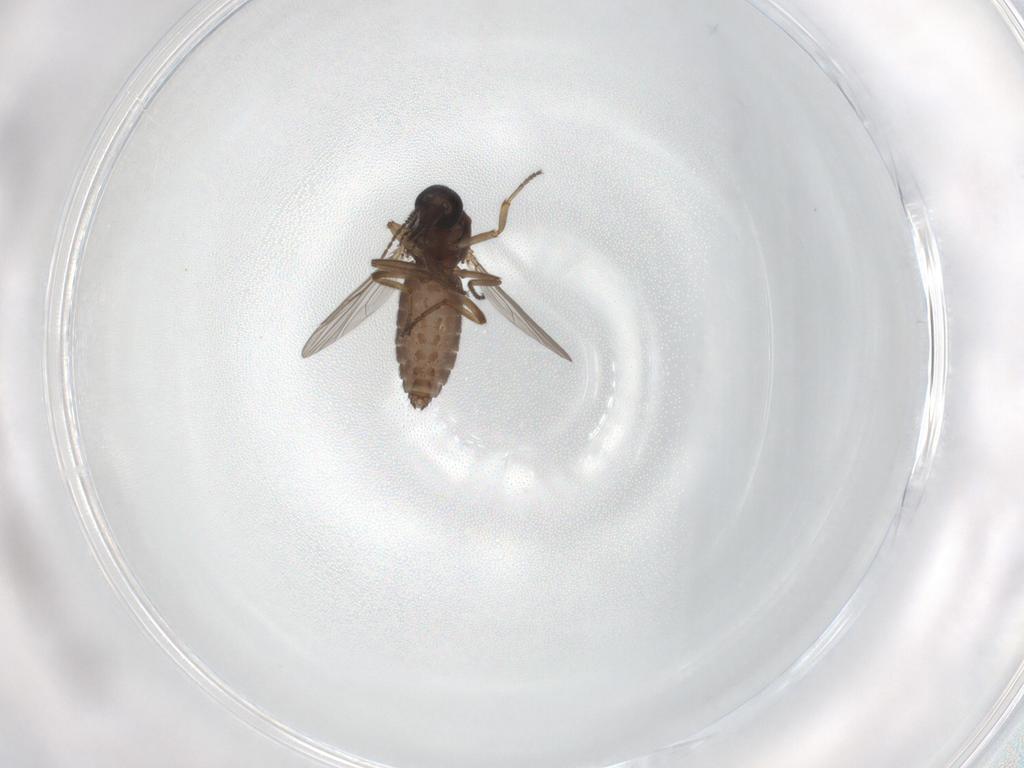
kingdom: Animalia
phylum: Arthropoda
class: Insecta
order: Diptera
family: Ceratopogonidae
